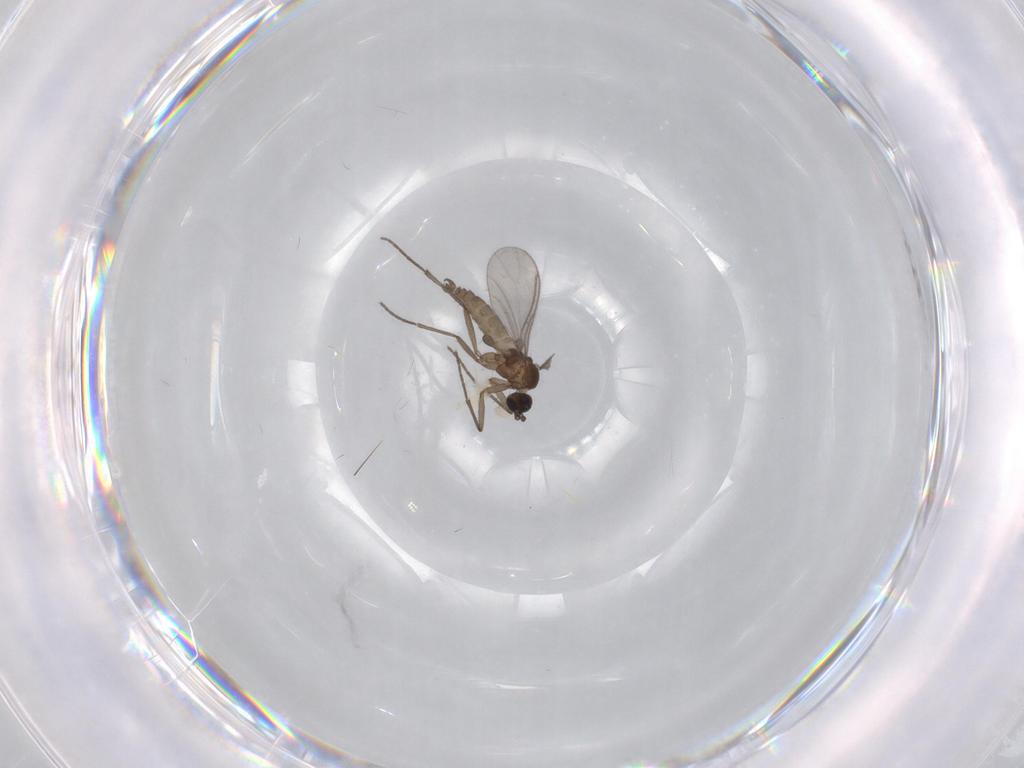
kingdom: Animalia
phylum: Arthropoda
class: Insecta
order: Diptera
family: Sciaridae
